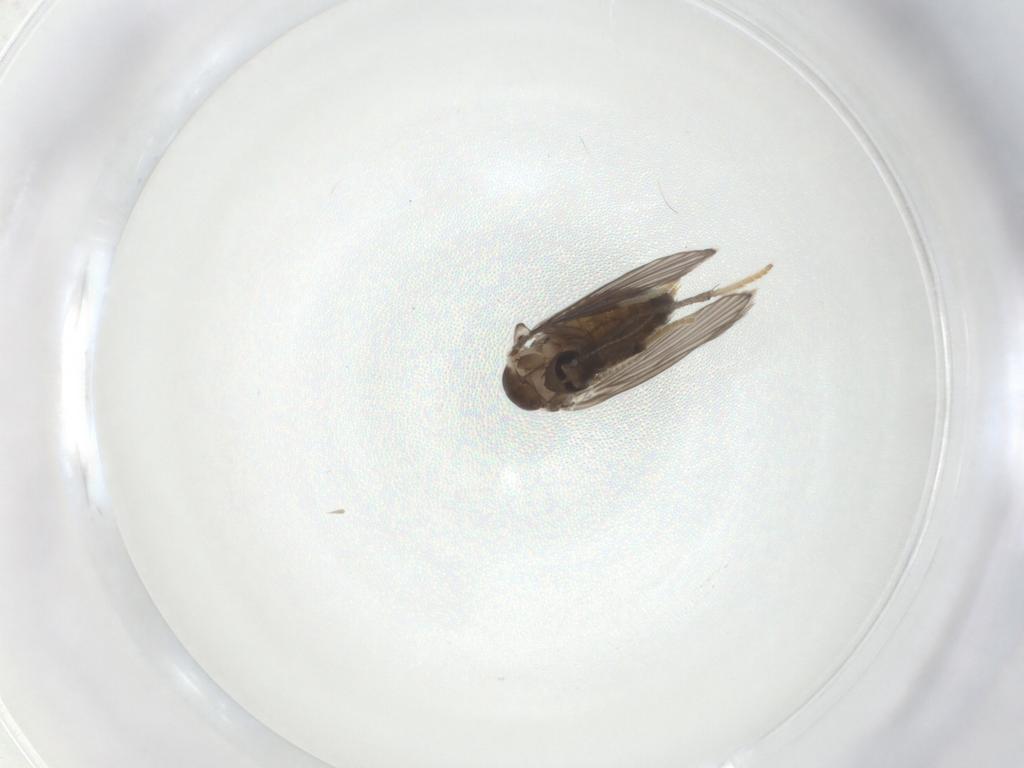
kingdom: Animalia
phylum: Arthropoda
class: Insecta
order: Diptera
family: Psychodidae
